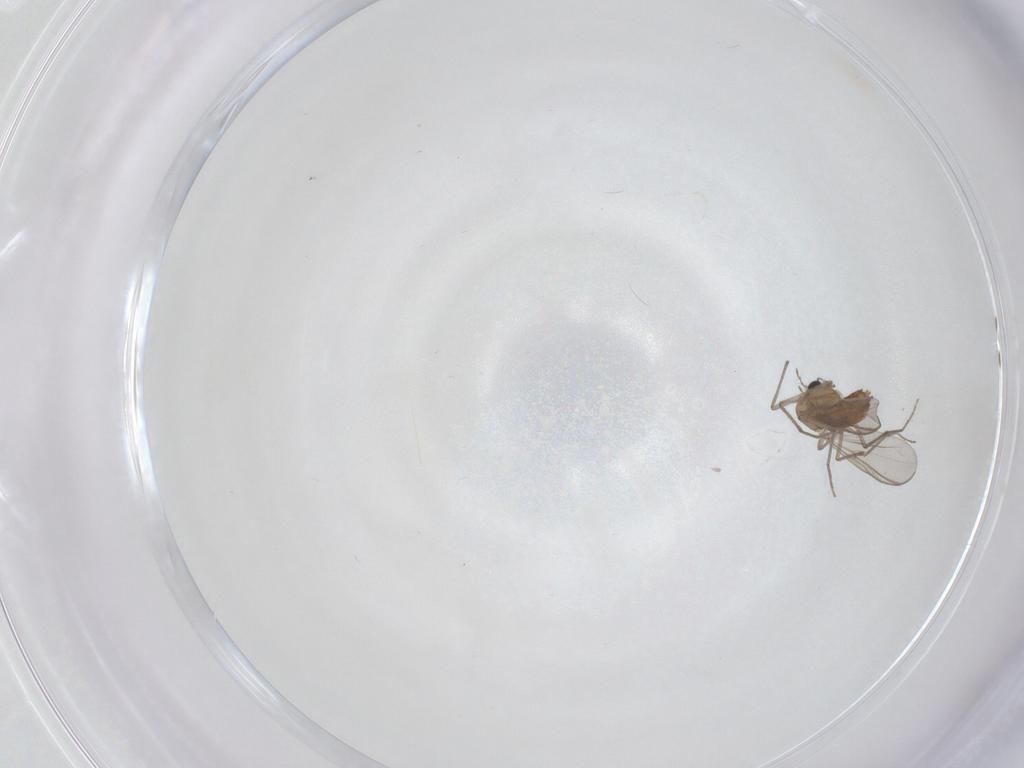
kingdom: Animalia
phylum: Arthropoda
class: Insecta
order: Diptera
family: Chironomidae
